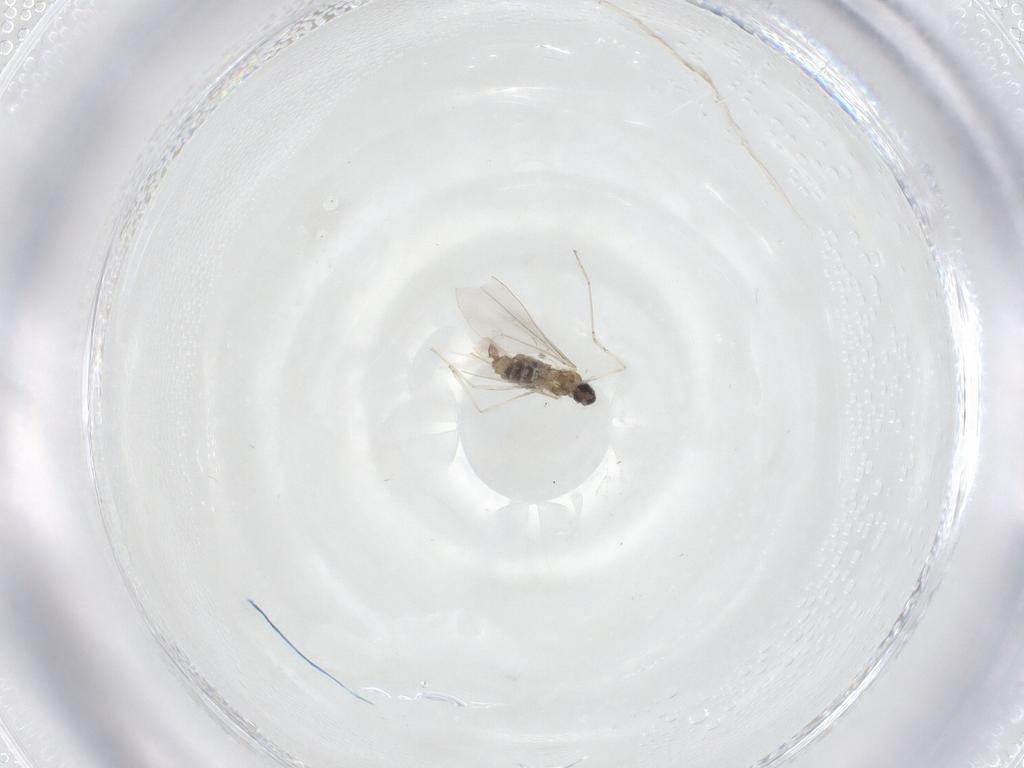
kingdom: Animalia
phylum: Arthropoda
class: Insecta
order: Diptera
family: Cecidomyiidae
